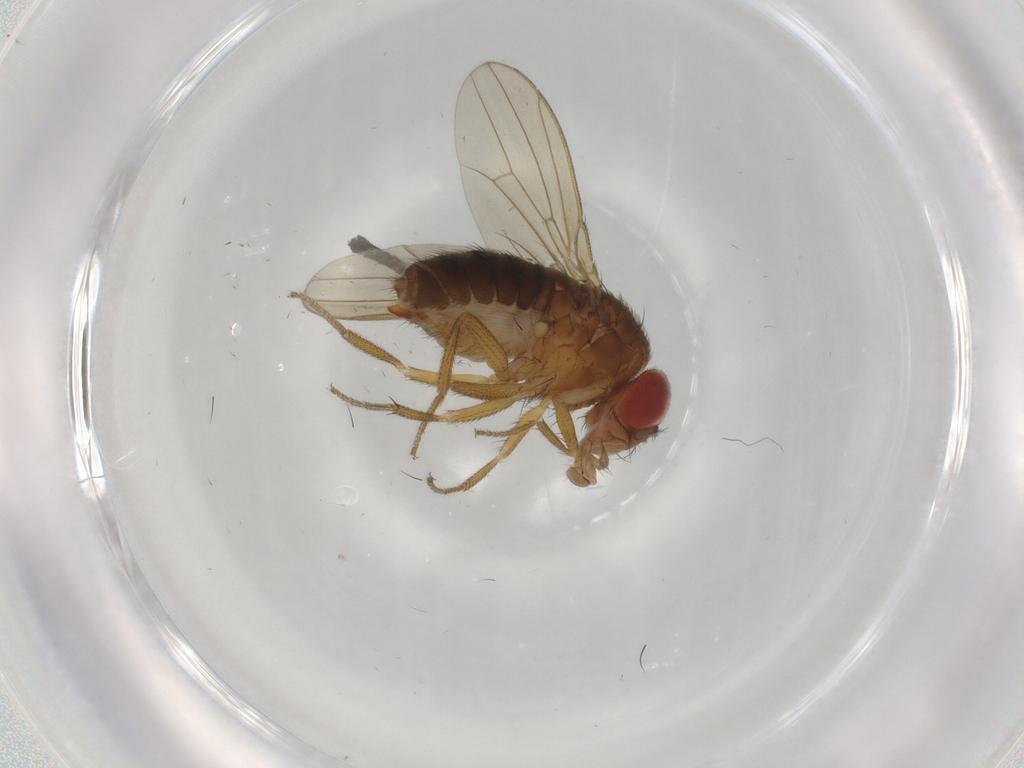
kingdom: Animalia
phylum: Arthropoda
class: Insecta
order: Diptera
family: Drosophilidae
